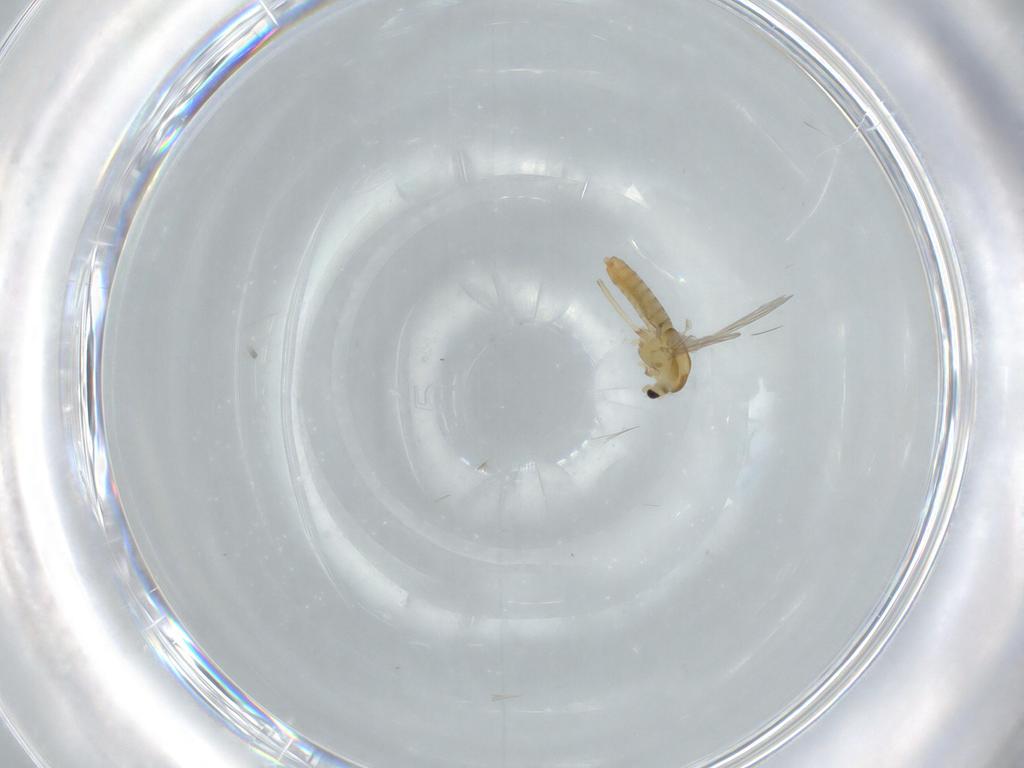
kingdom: Animalia
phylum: Arthropoda
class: Insecta
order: Diptera
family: Chironomidae
